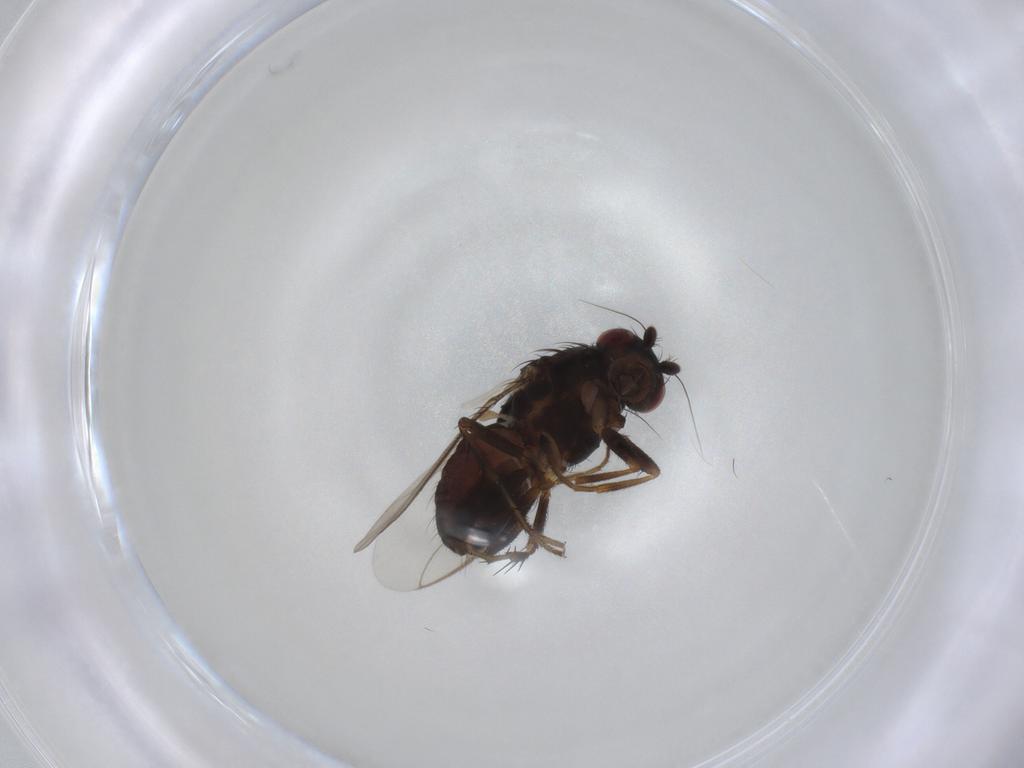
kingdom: Animalia
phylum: Arthropoda
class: Insecta
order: Diptera
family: Sphaeroceridae
